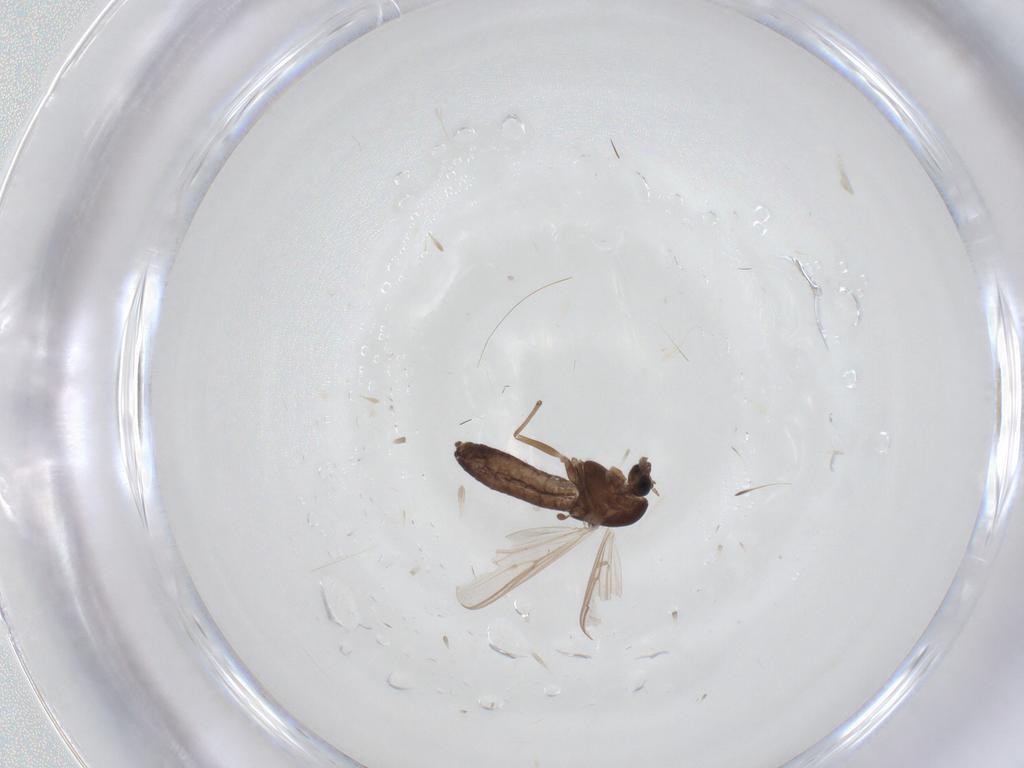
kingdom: Animalia
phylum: Arthropoda
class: Insecta
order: Diptera
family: Chironomidae
